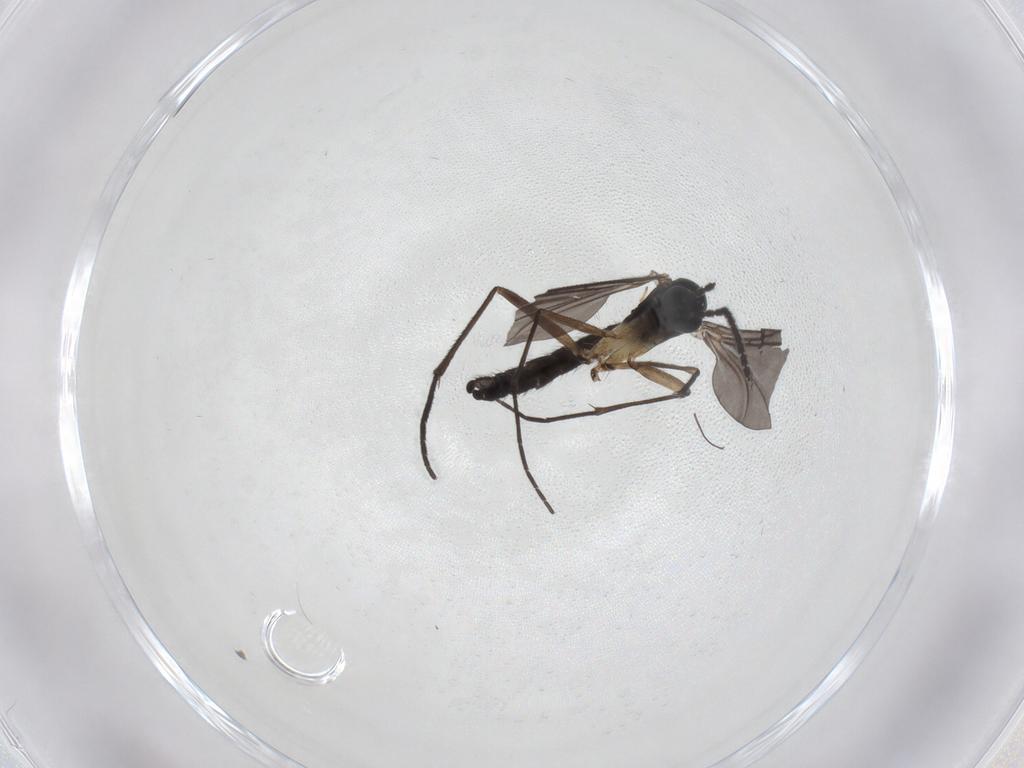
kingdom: Animalia
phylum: Arthropoda
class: Insecta
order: Diptera
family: Sciaridae
